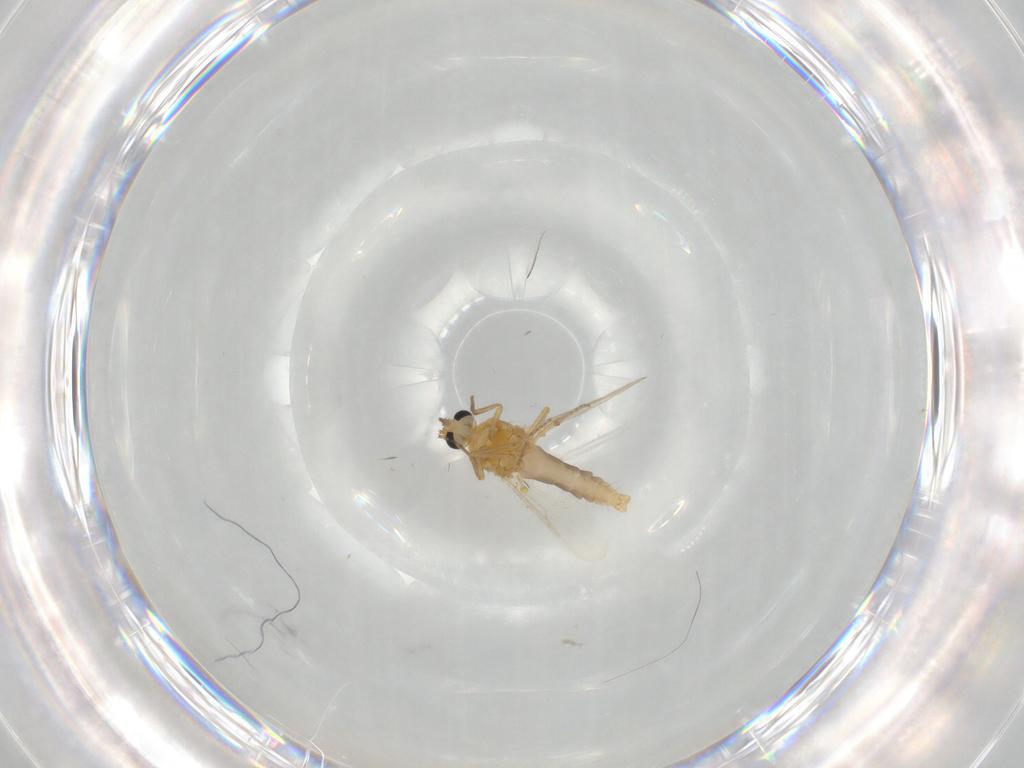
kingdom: Animalia
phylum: Arthropoda
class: Insecta
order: Diptera
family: Ceratopogonidae
